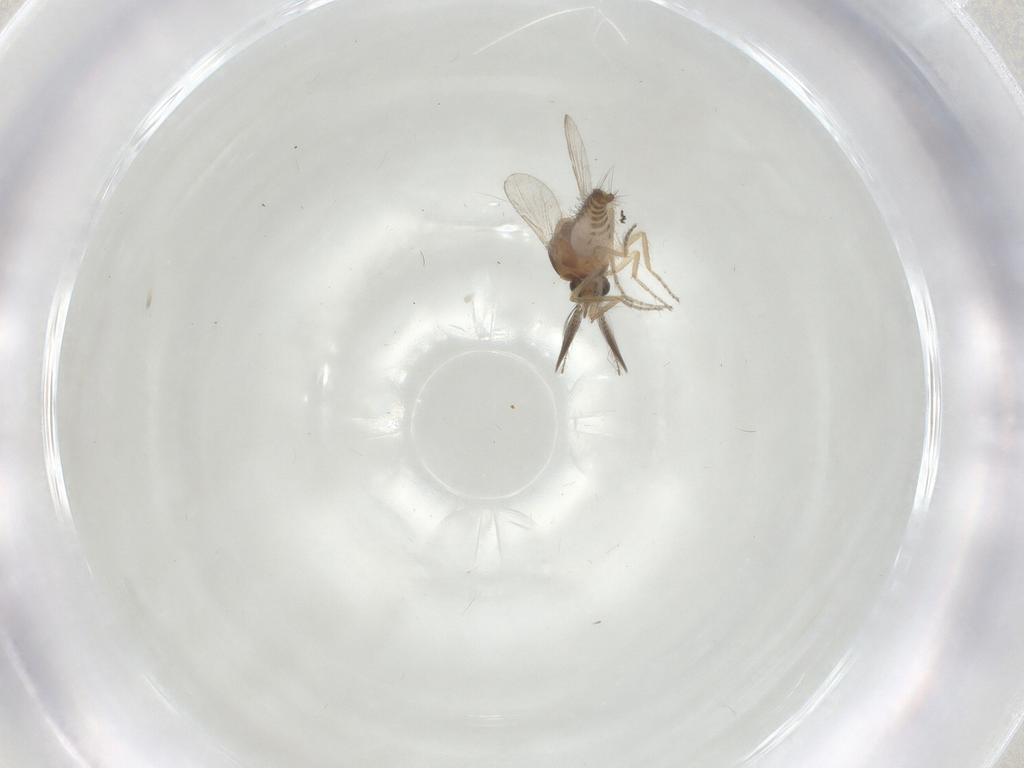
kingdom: Animalia
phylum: Arthropoda
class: Insecta
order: Diptera
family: Ceratopogonidae
